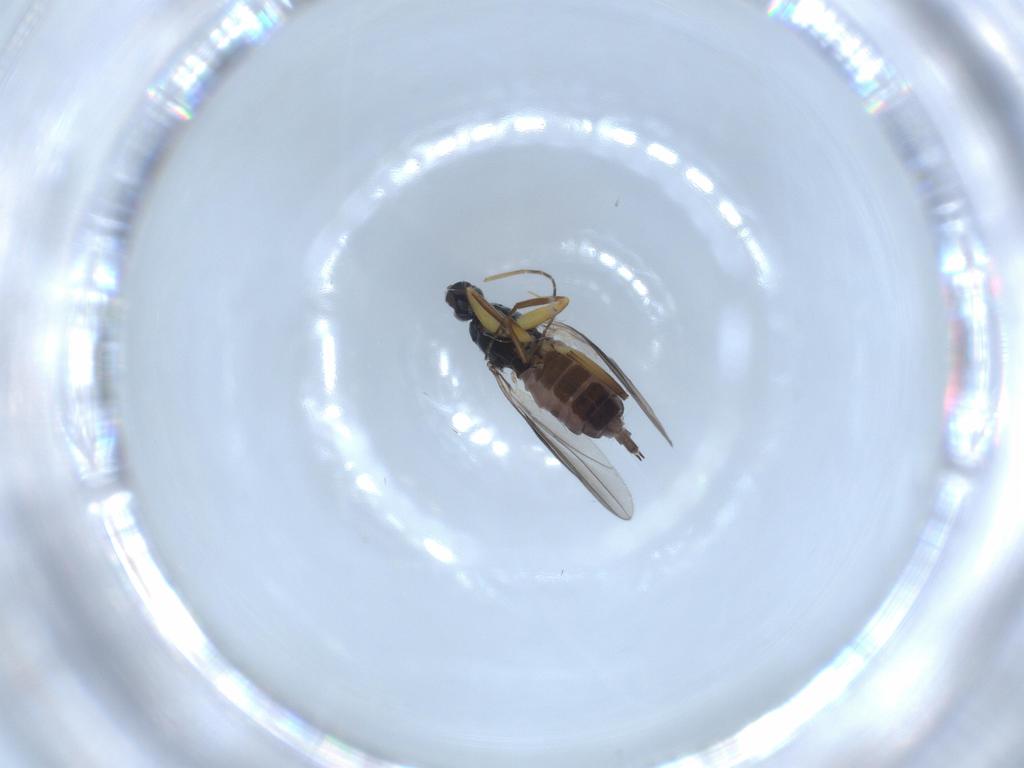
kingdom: Animalia
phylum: Arthropoda
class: Insecta
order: Diptera
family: Hybotidae
